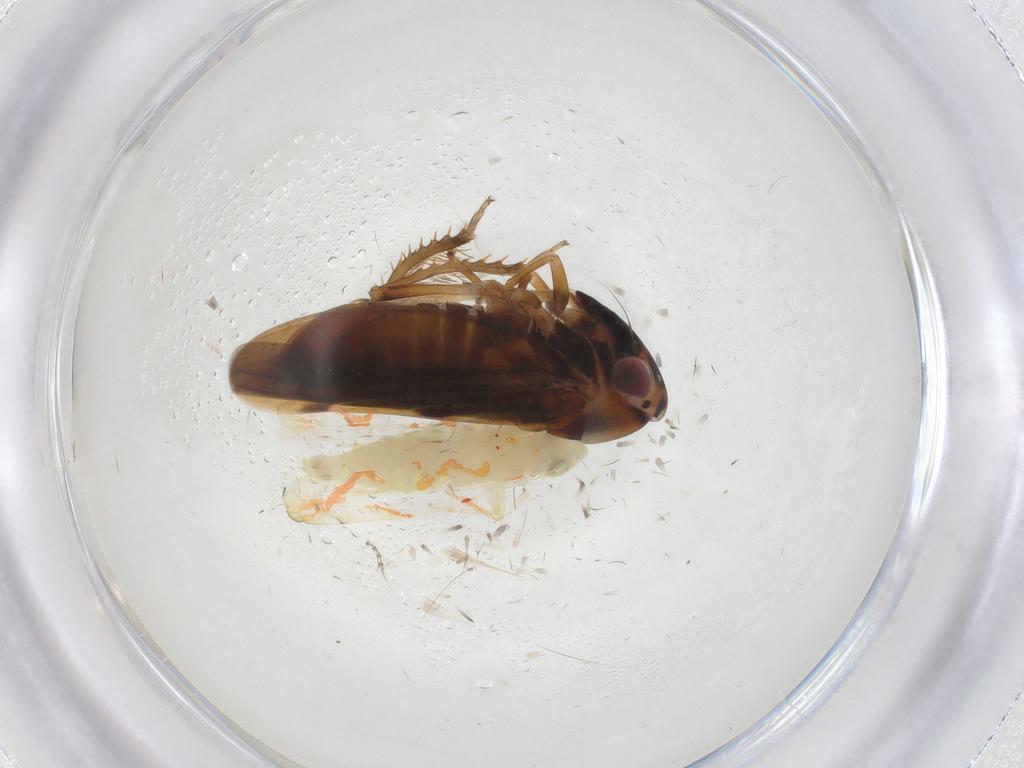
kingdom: Animalia
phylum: Arthropoda
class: Insecta
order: Hemiptera
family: Cicadellidae
